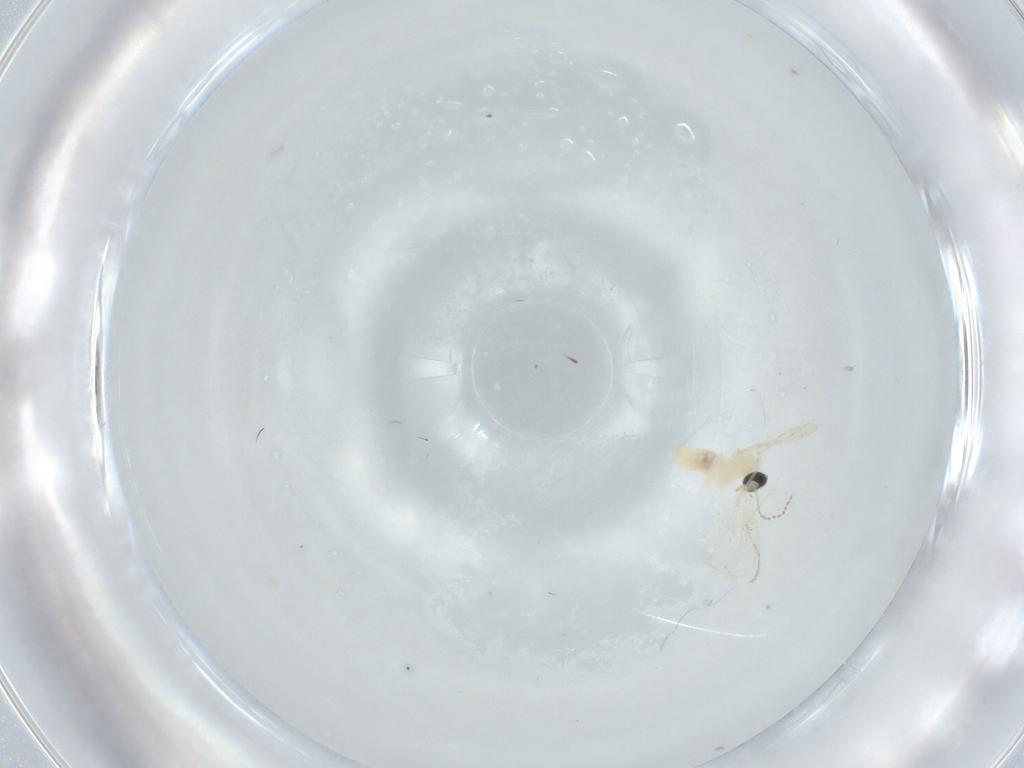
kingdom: Animalia
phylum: Arthropoda
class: Insecta
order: Diptera
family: Cecidomyiidae
